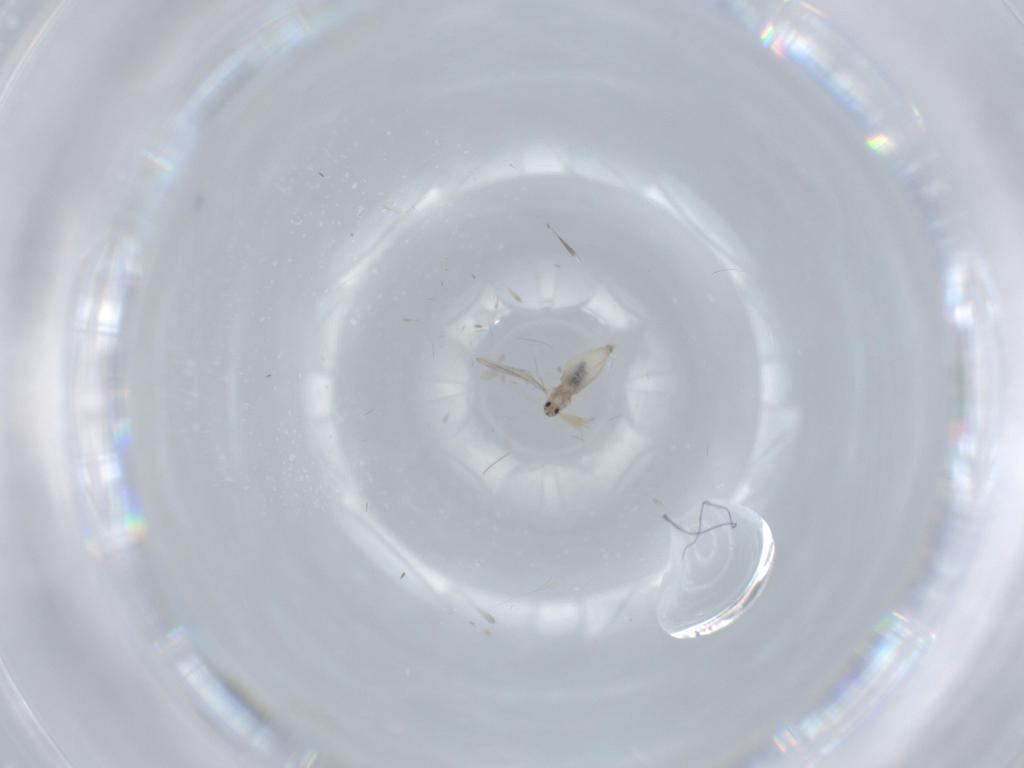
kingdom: Animalia
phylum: Arthropoda
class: Insecta
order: Diptera
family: Cecidomyiidae
